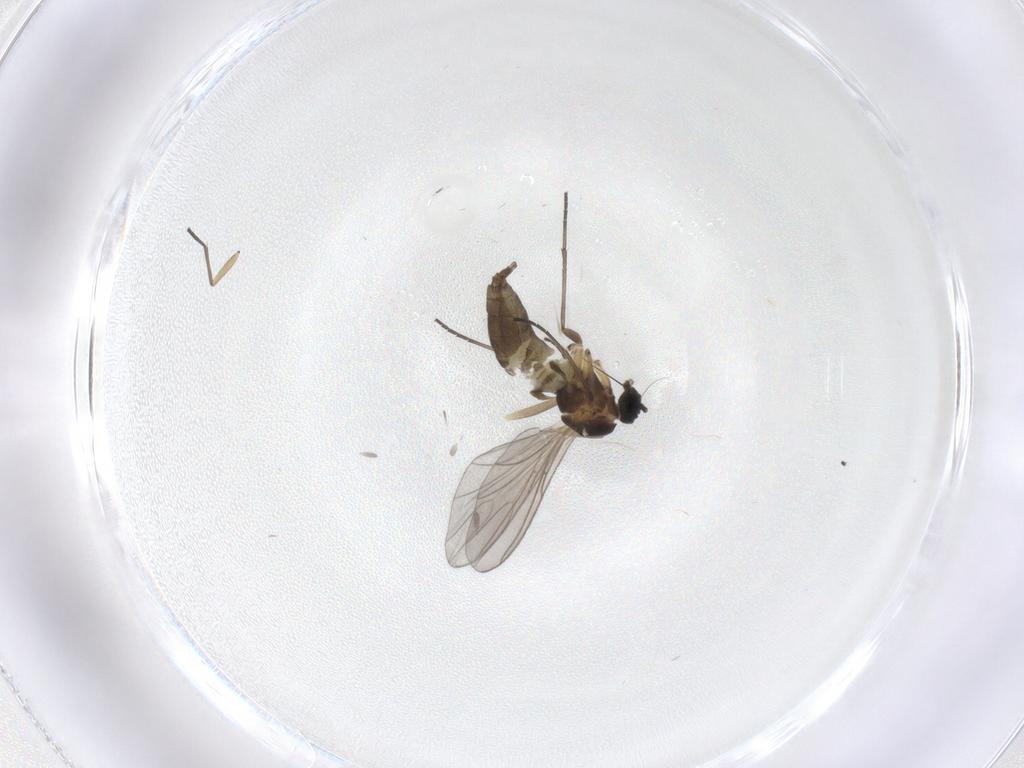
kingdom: Animalia
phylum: Arthropoda
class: Insecta
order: Diptera
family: Sciaridae
